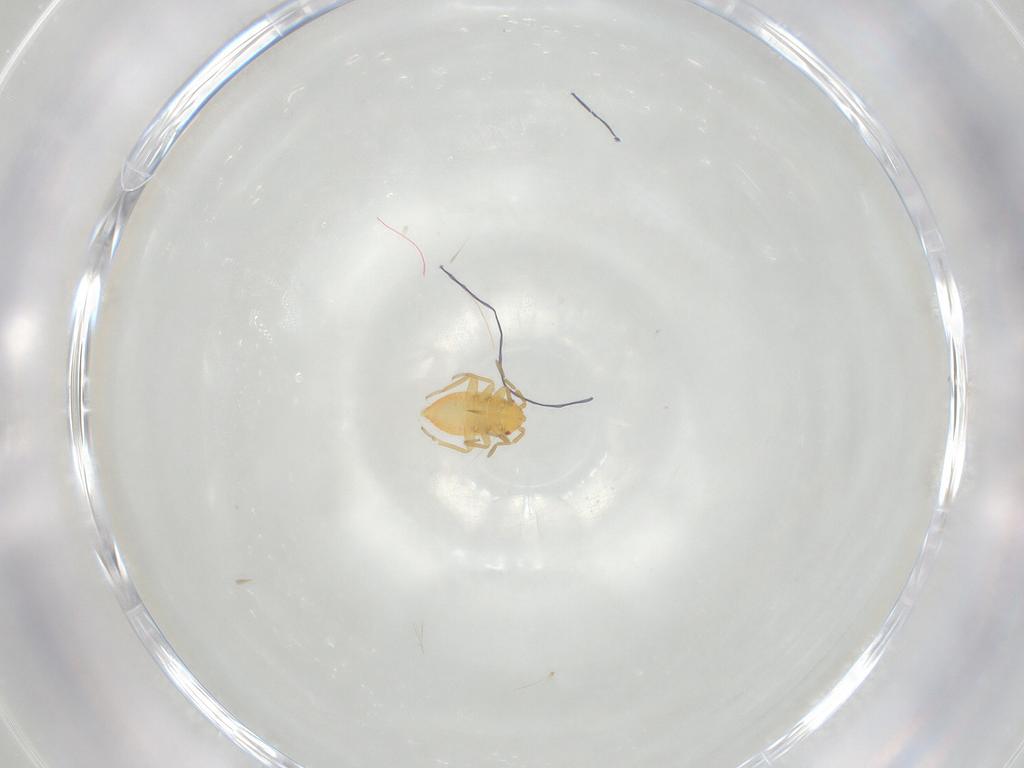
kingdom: Animalia
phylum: Arthropoda
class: Insecta
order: Hemiptera
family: Miridae
